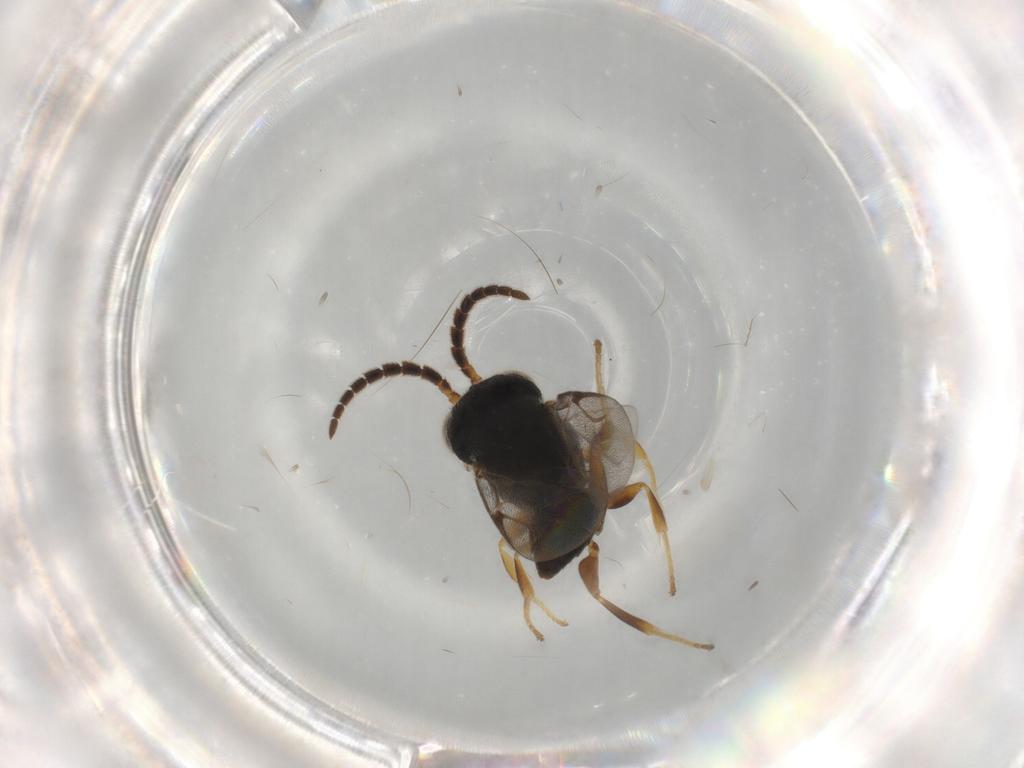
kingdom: Animalia
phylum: Arthropoda
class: Insecta
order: Hymenoptera
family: Dryinidae
